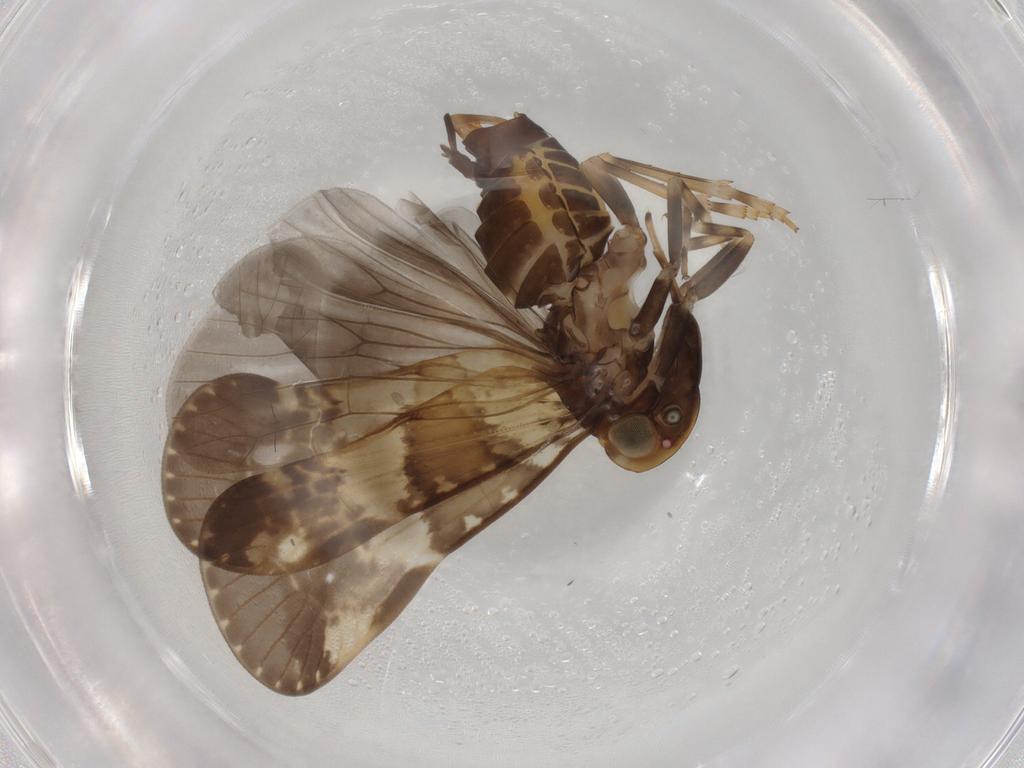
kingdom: Animalia
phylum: Arthropoda
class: Insecta
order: Hemiptera
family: Cixiidae
